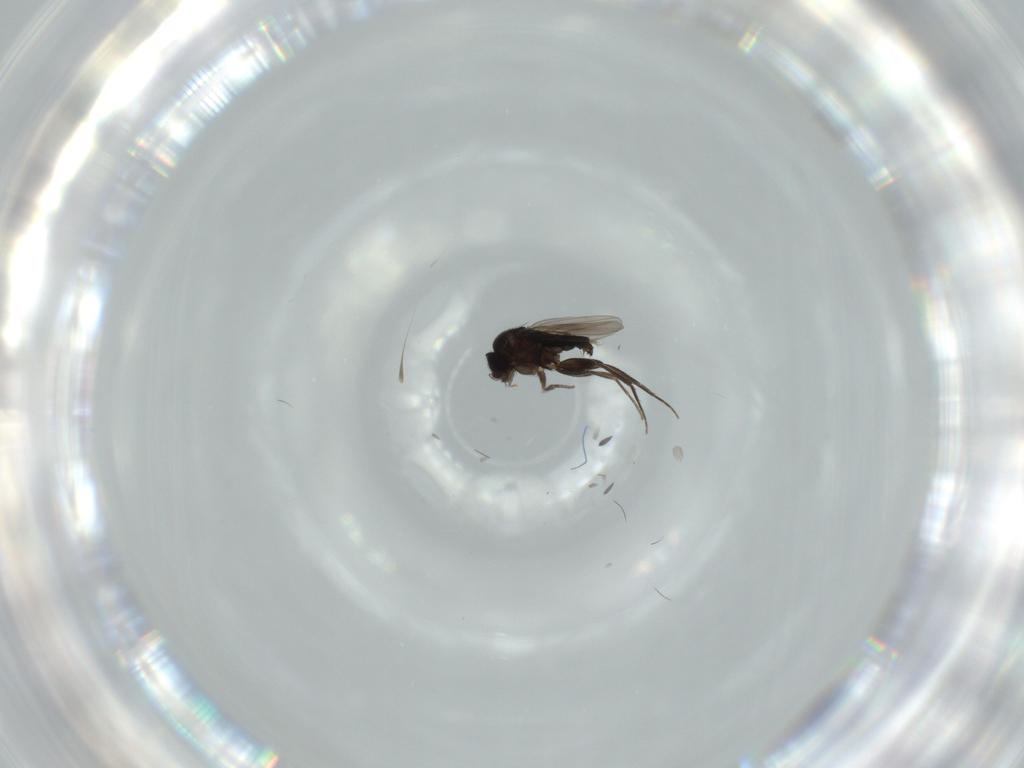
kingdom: Animalia
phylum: Arthropoda
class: Insecta
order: Diptera
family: Phoridae
